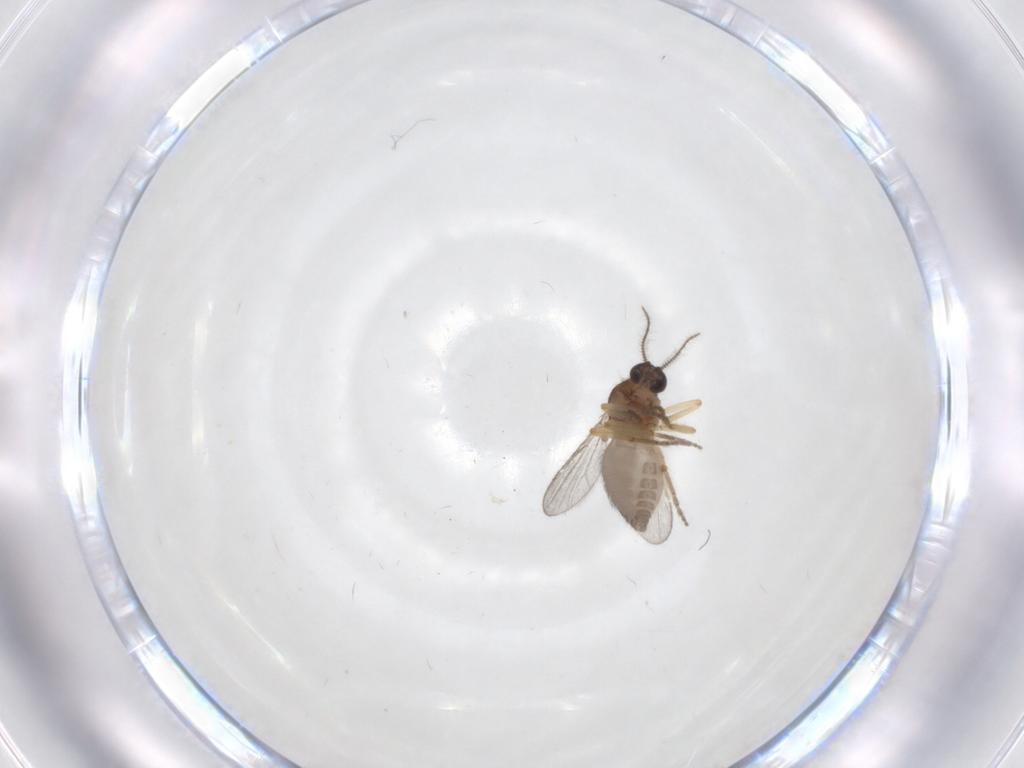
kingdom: Animalia
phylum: Arthropoda
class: Insecta
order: Diptera
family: Ceratopogonidae
